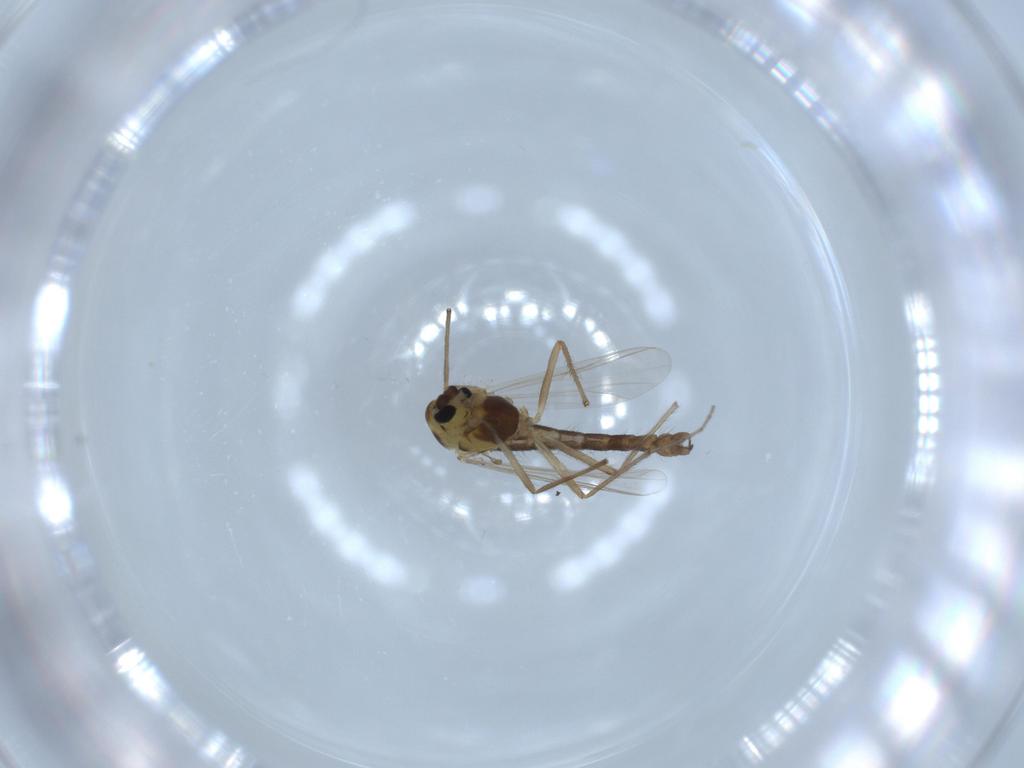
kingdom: Animalia
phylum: Arthropoda
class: Insecta
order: Diptera
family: Chironomidae
